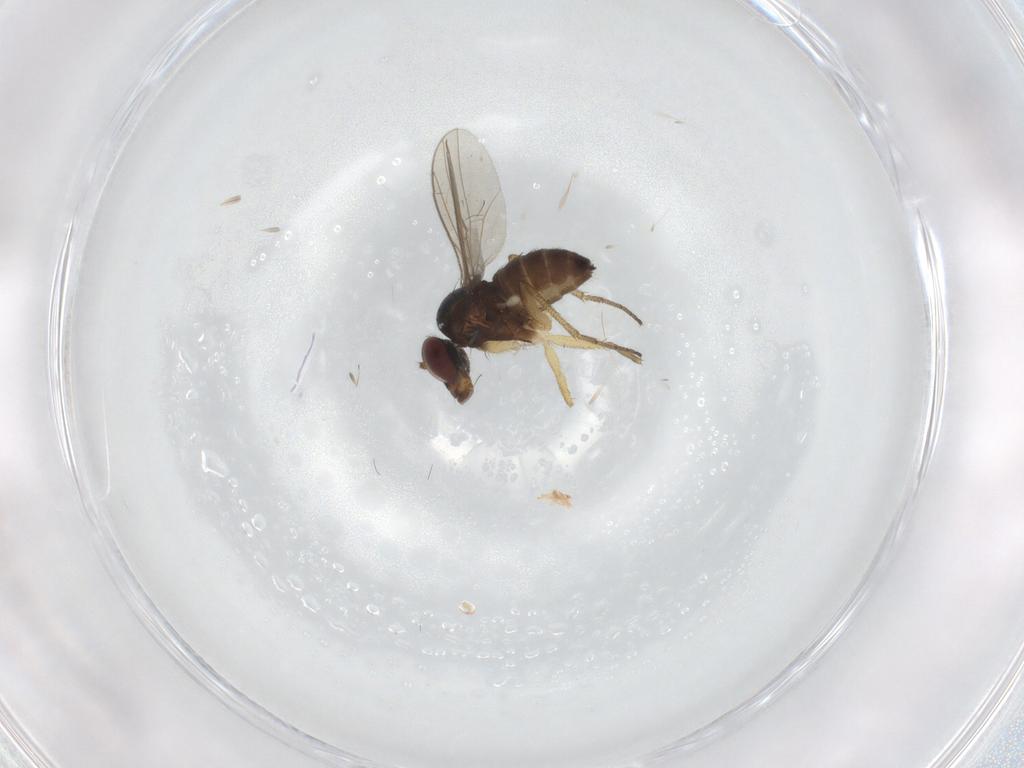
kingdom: Animalia
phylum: Arthropoda
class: Insecta
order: Diptera
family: Dolichopodidae
